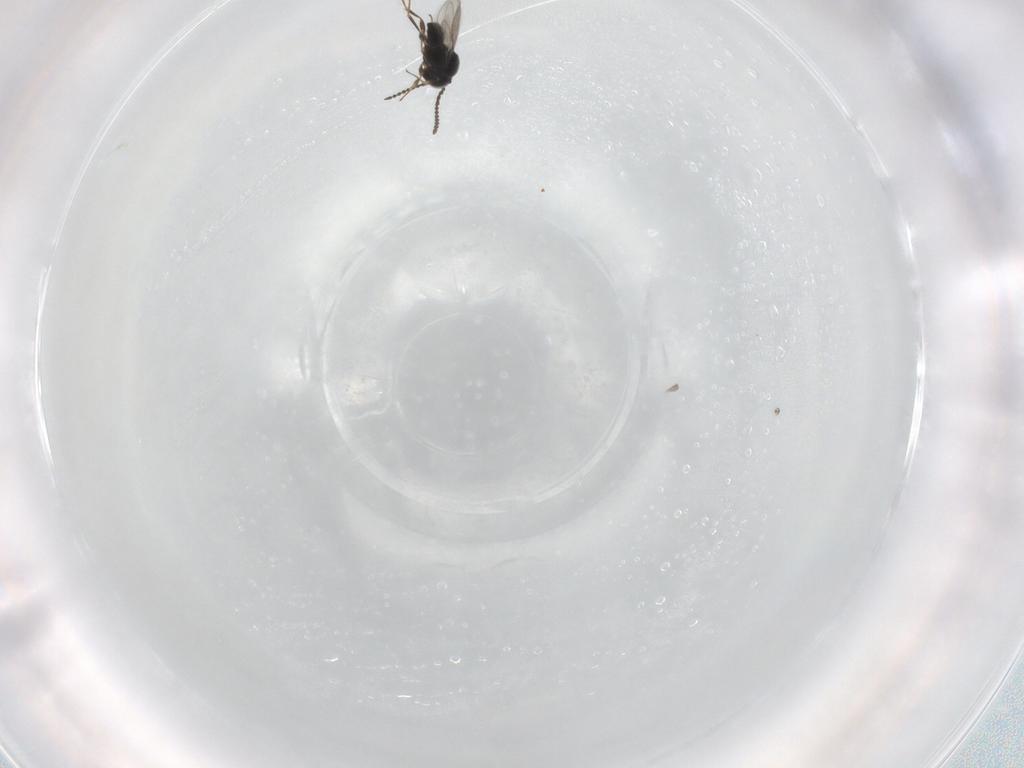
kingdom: Animalia
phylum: Arthropoda
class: Insecta
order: Hymenoptera
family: Scelionidae
